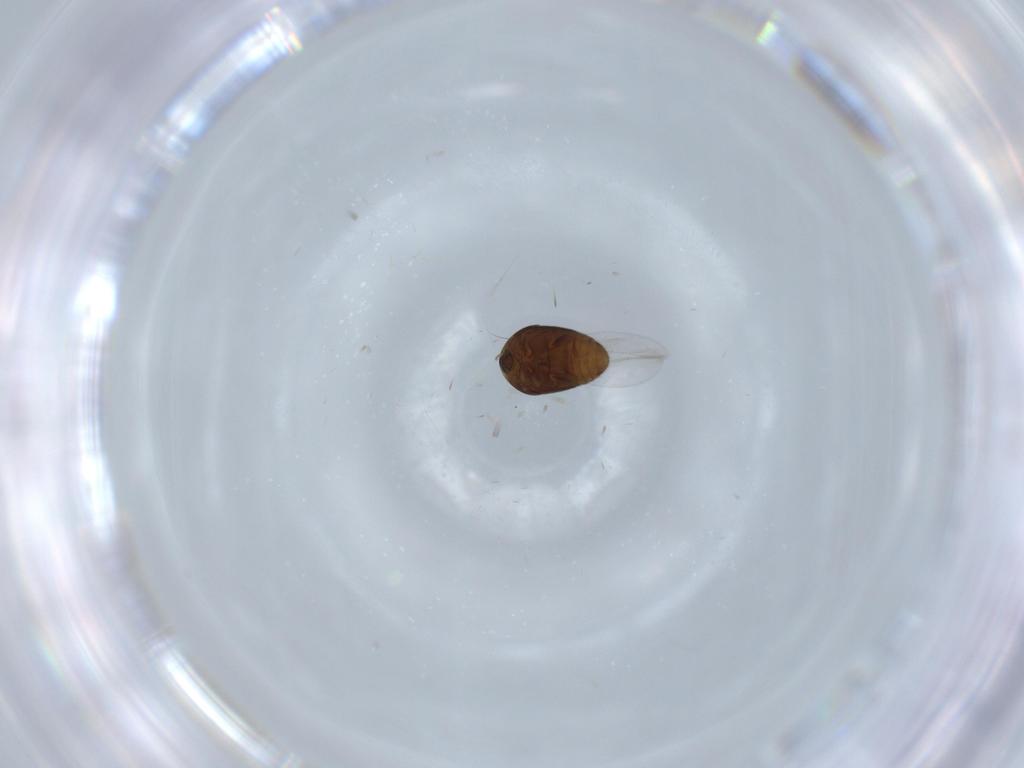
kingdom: Animalia
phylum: Arthropoda
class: Insecta
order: Coleoptera
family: Corylophidae
